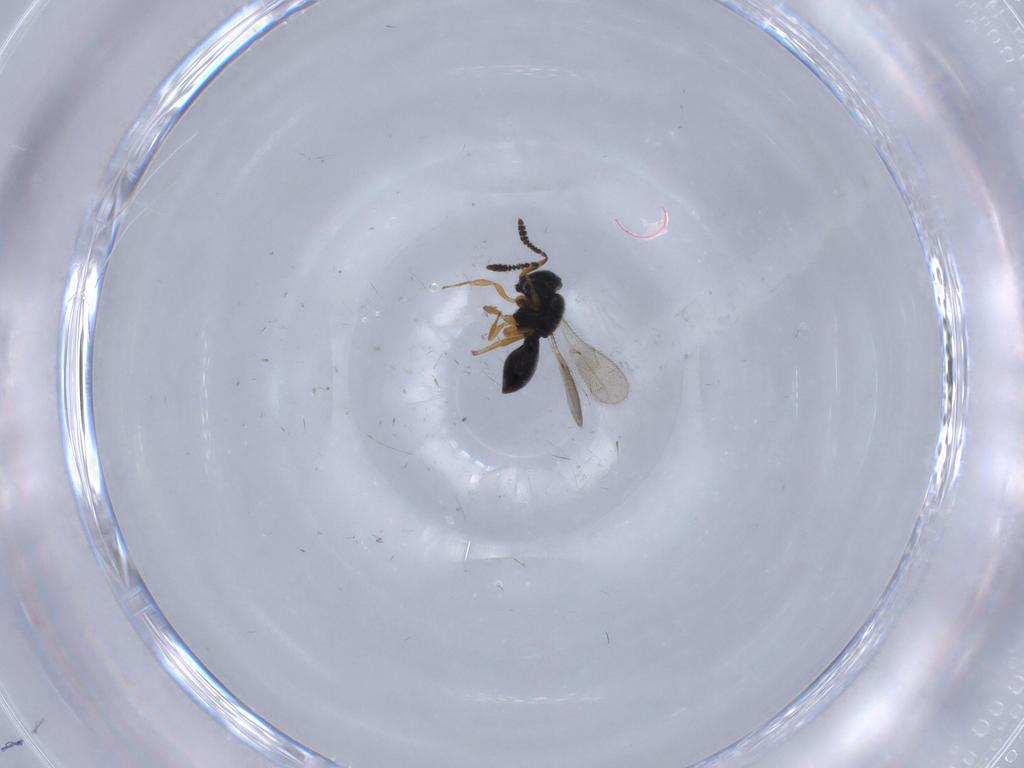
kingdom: Animalia
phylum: Arthropoda
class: Insecta
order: Hymenoptera
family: Scelionidae
